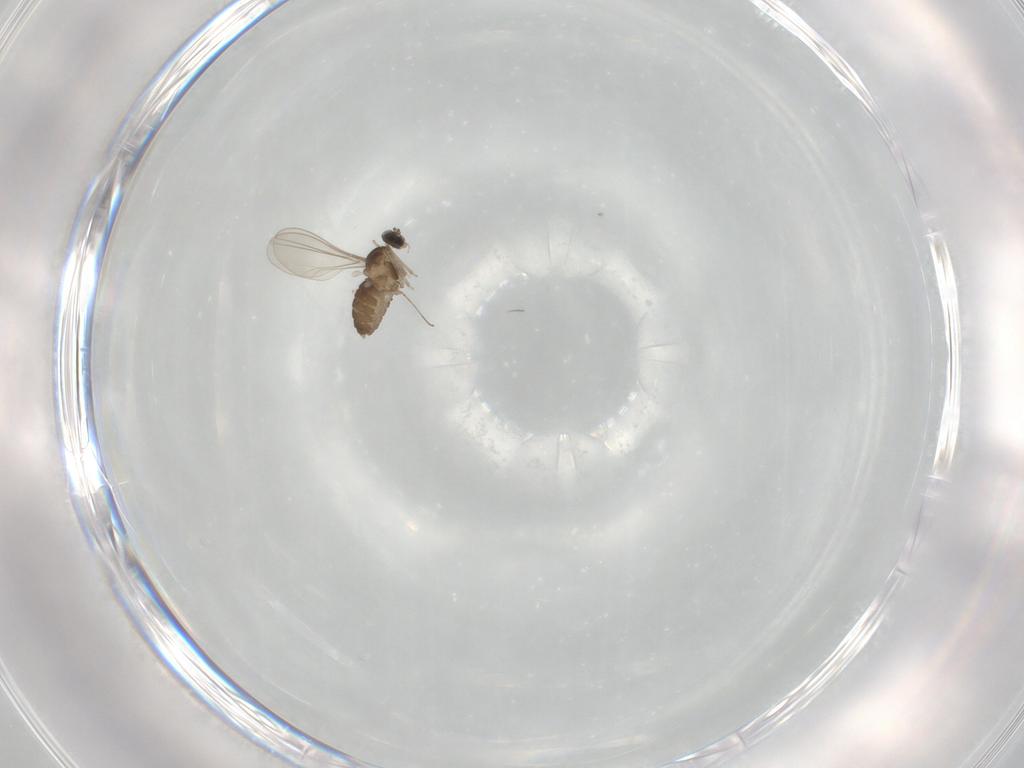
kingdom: Animalia
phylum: Arthropoda
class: Insecta
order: Diptera
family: Cecidomyiidae
